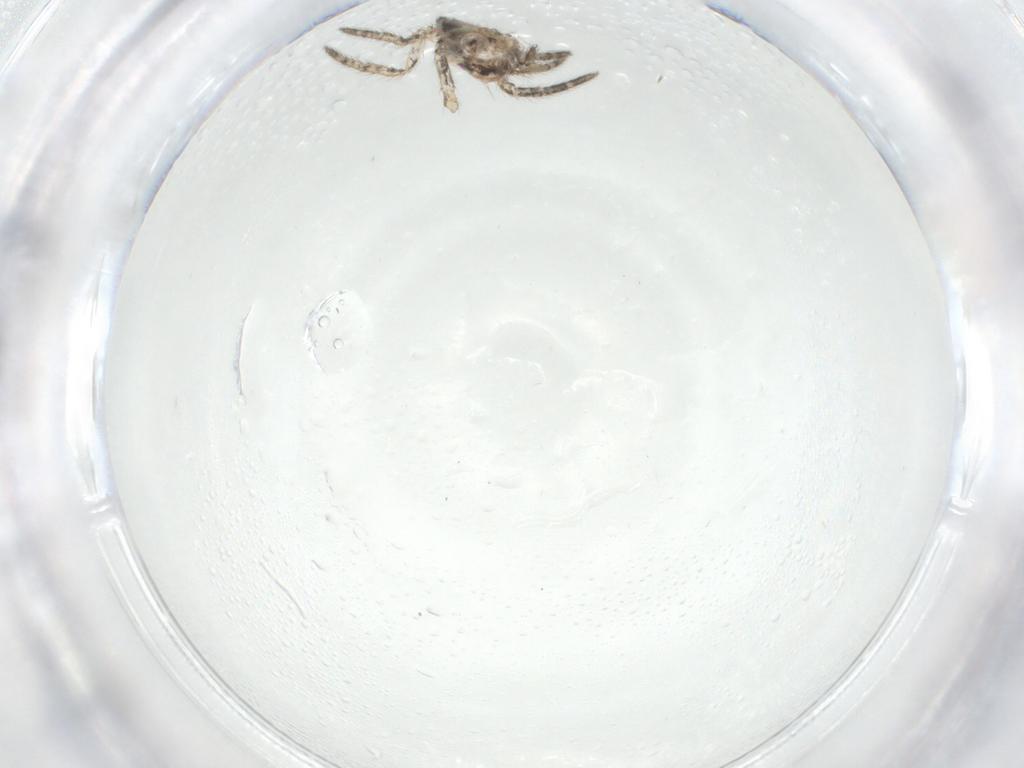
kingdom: Animalia
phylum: Arthropoda
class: Arachnida
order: Araneae
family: Araneidae
